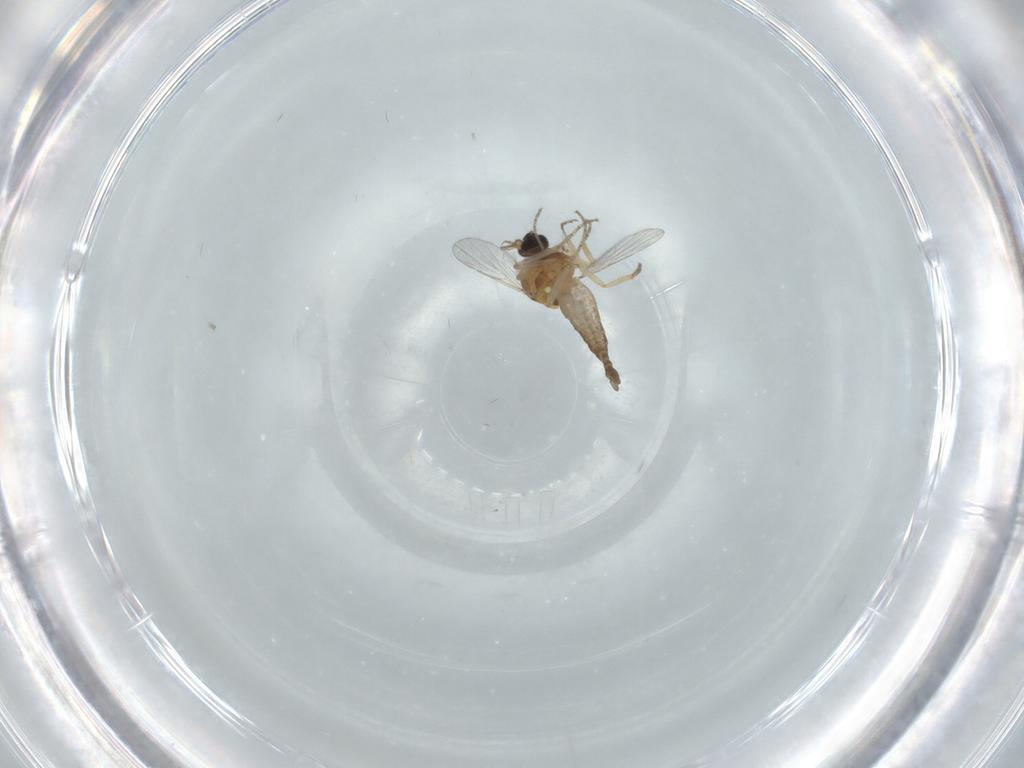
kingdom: Animalia
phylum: Arthropoda
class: Insecta
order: Diptera
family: Ceratopogonidae
